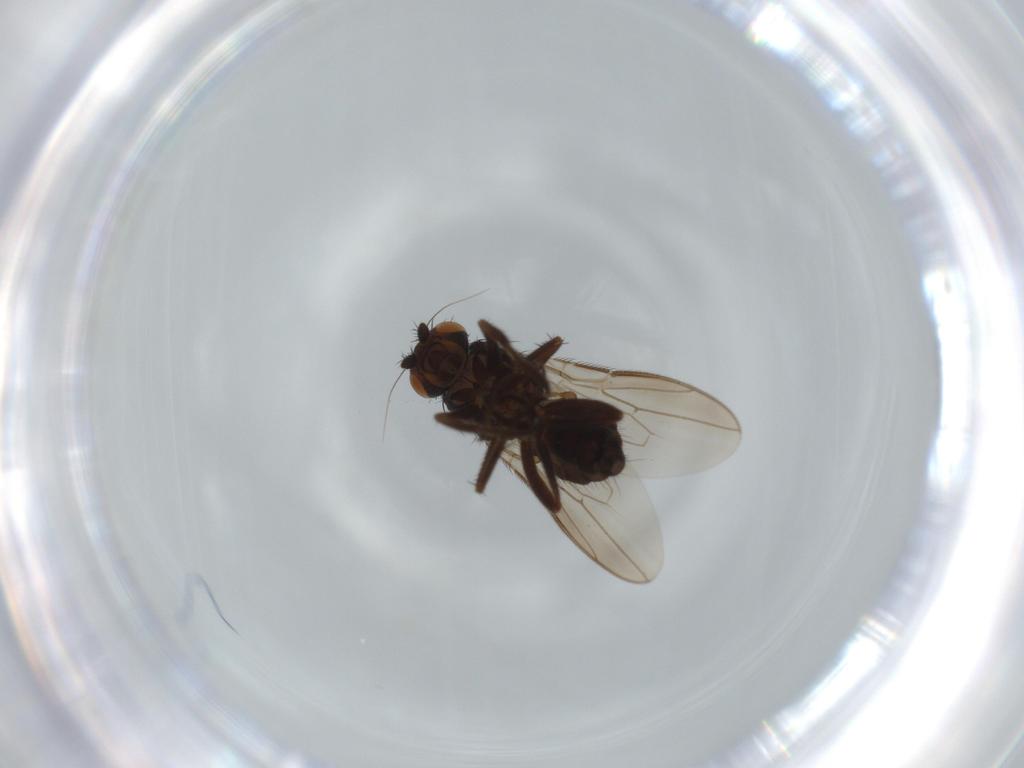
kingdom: Animalia
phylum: Arthropoda
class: Insecta
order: Diptera
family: Sphaeroceridae
